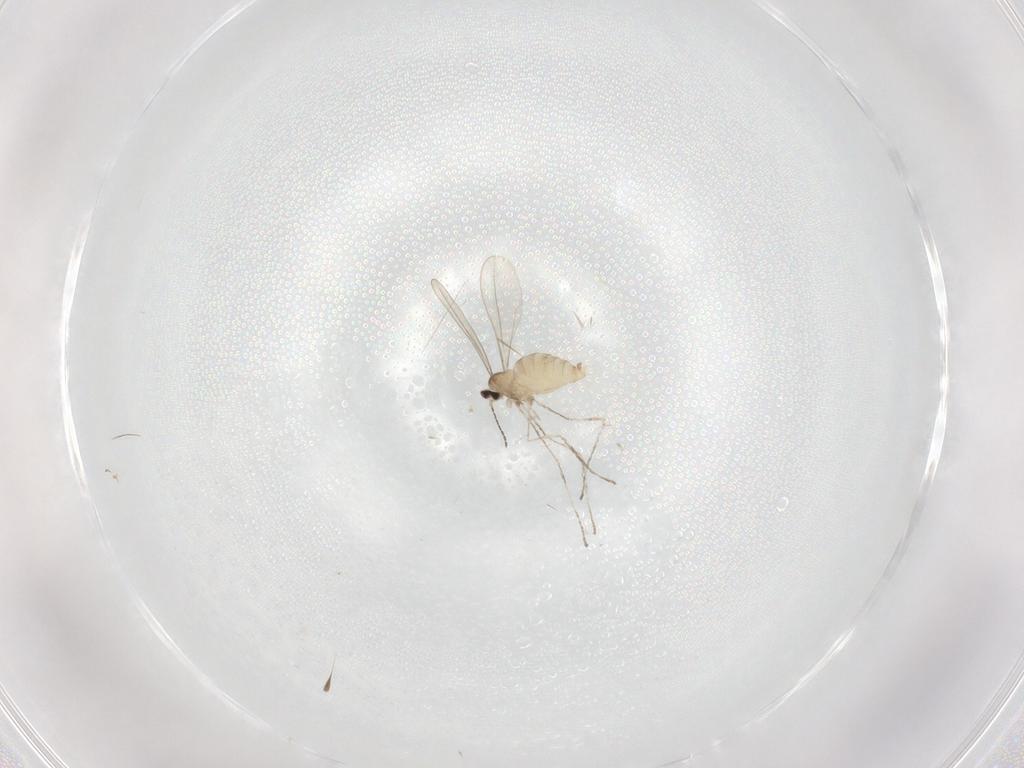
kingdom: Animalia
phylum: Arthropoda
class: Insecta
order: Diptera
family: Cecidomyiidae
